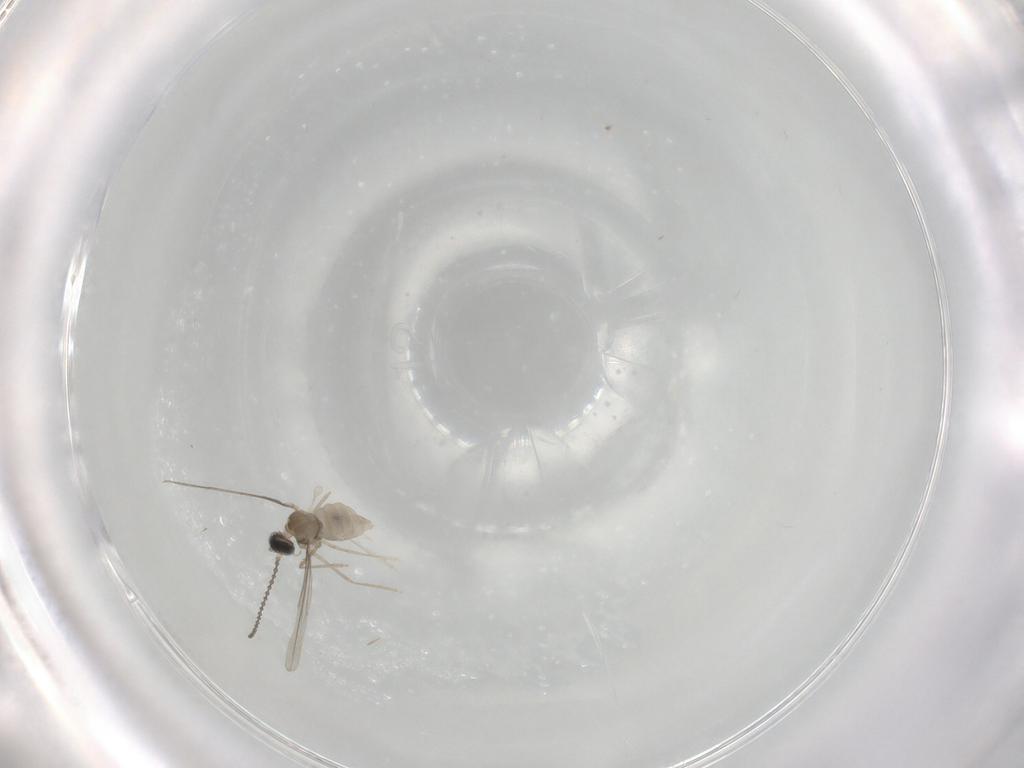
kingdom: Animalia
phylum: Arthropoda
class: Insecta
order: Diptera
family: Cecidomyiidae
